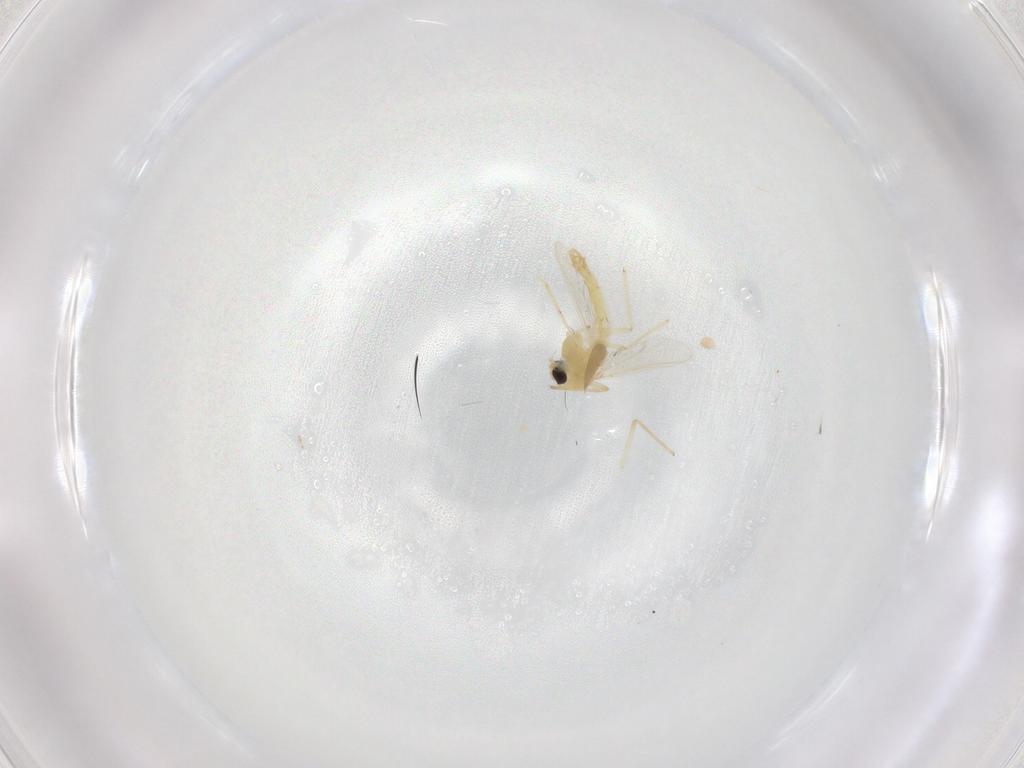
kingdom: Animalia
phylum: Arthropoda
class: Insecta
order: Diptera
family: Chironomidae
